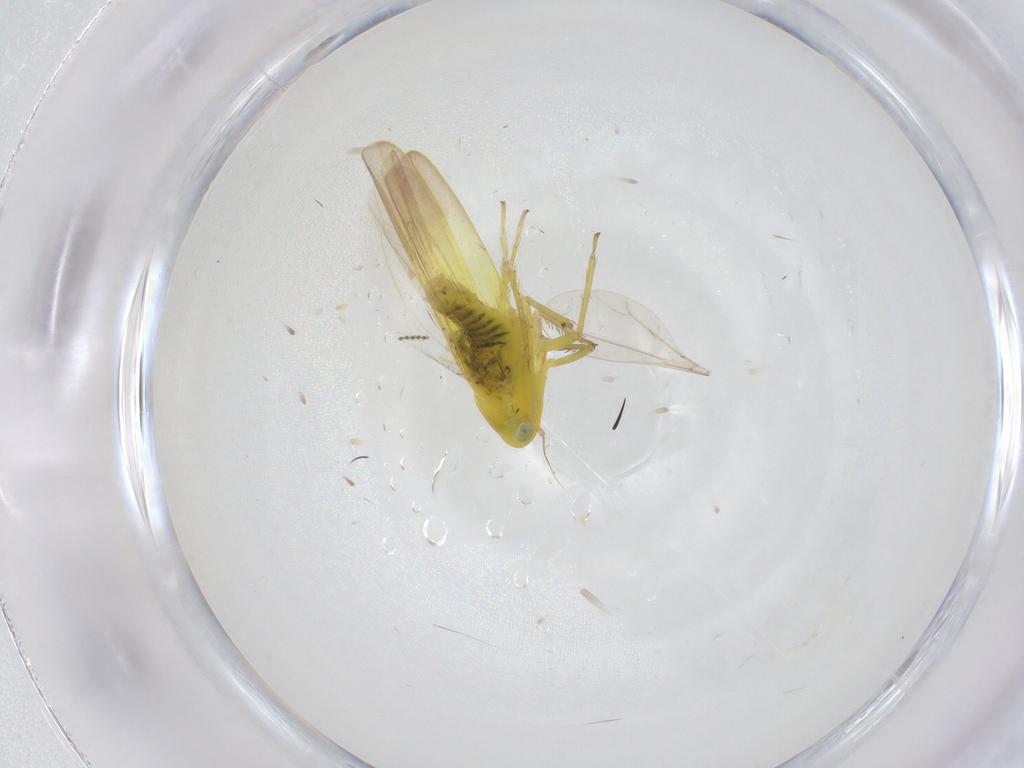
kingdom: Animalia
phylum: Arthropoda
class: Insecta
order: Hemiptera
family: Cicadellidae
